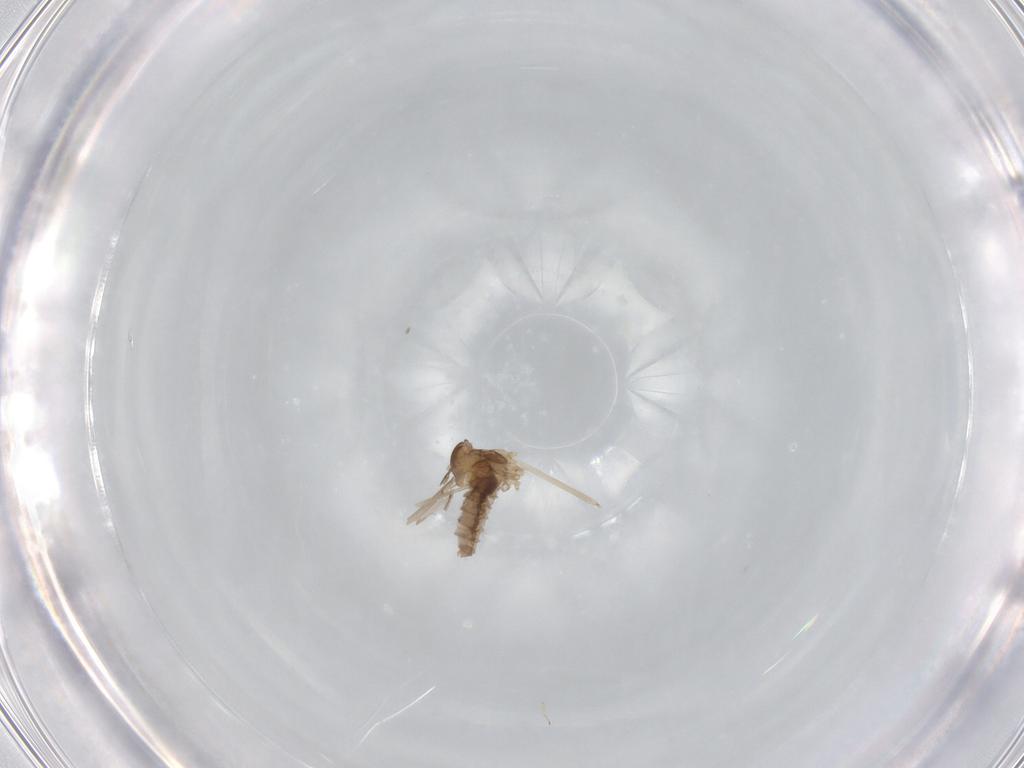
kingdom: Animalia
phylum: Arthropoda
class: Insecta
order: Diptera
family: Cecidomyiidae
